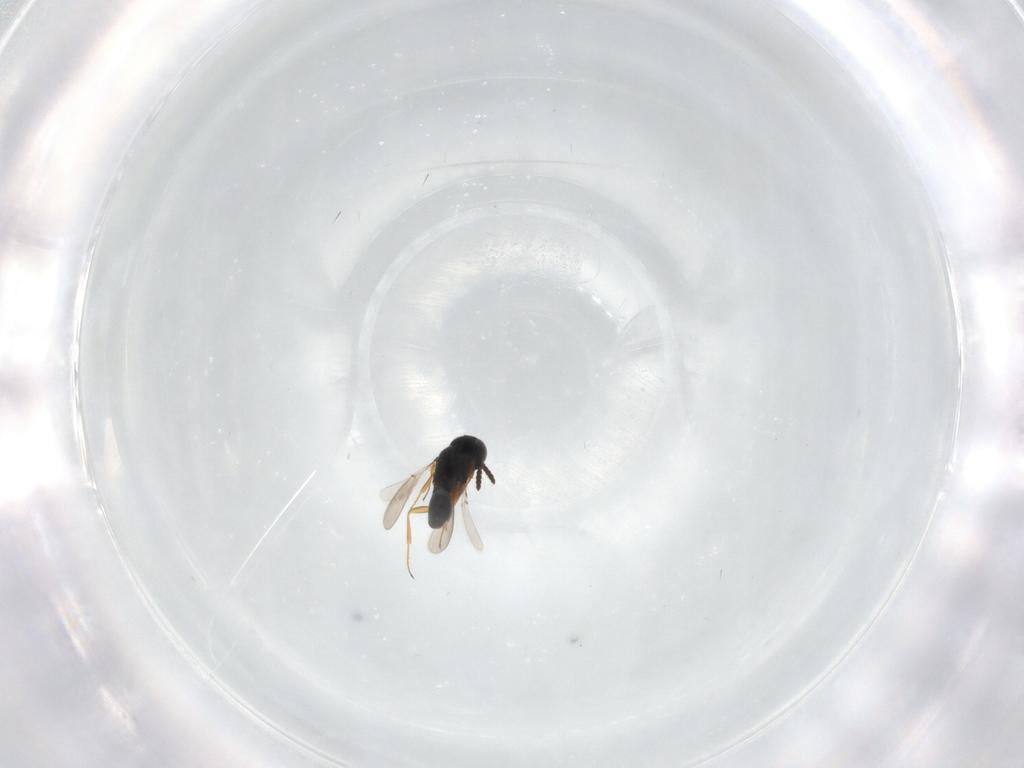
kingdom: Animalia
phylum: Arthropoda
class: Insecta
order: Hymenoptera
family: Scelionidae
